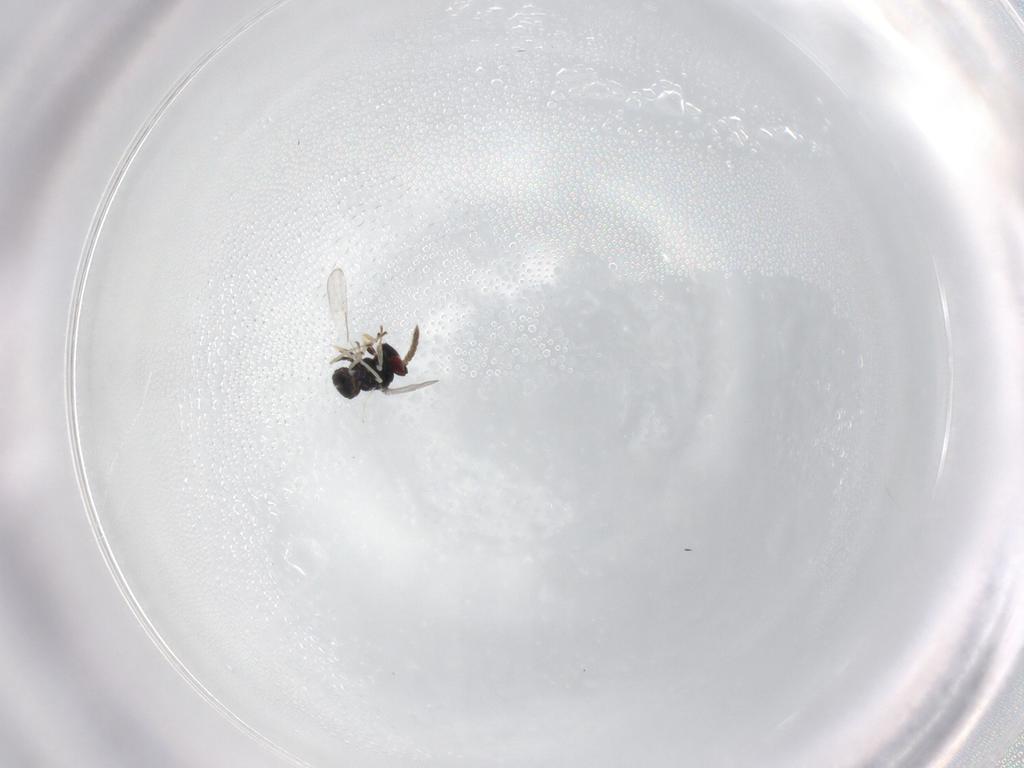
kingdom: Animalia
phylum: Arthropoda
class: Insecta
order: Hymenoptera
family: Eulophidae
